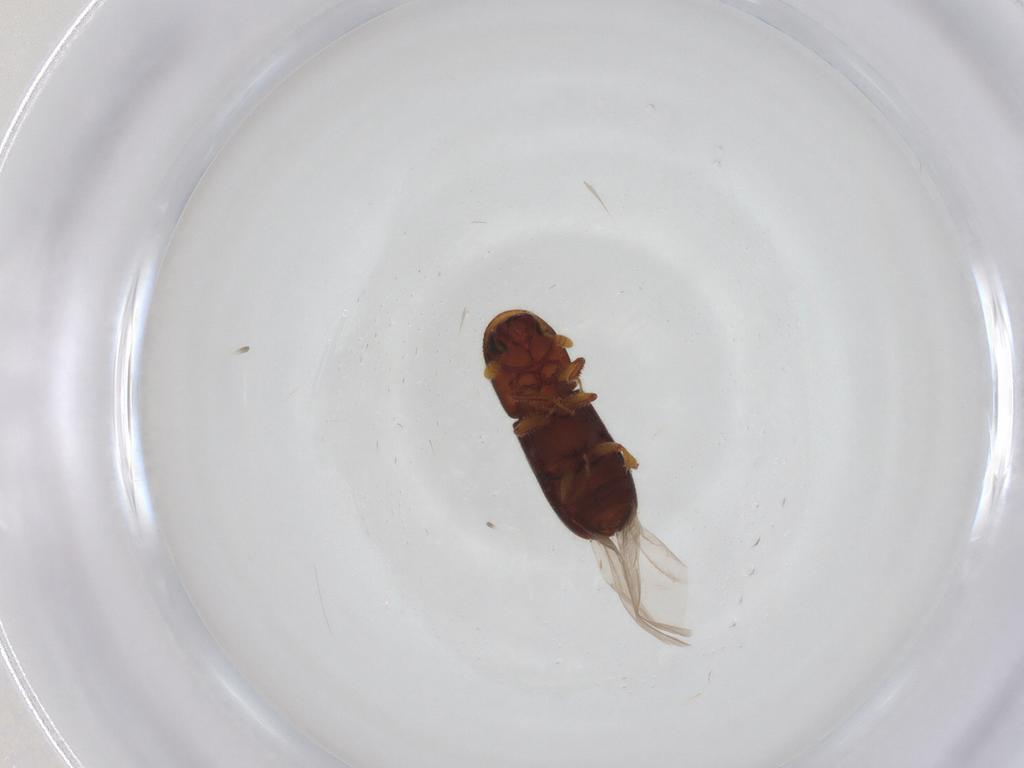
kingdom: Animalia
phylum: Arthropoda
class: Insecta
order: Coleoptera
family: Curculionidae
